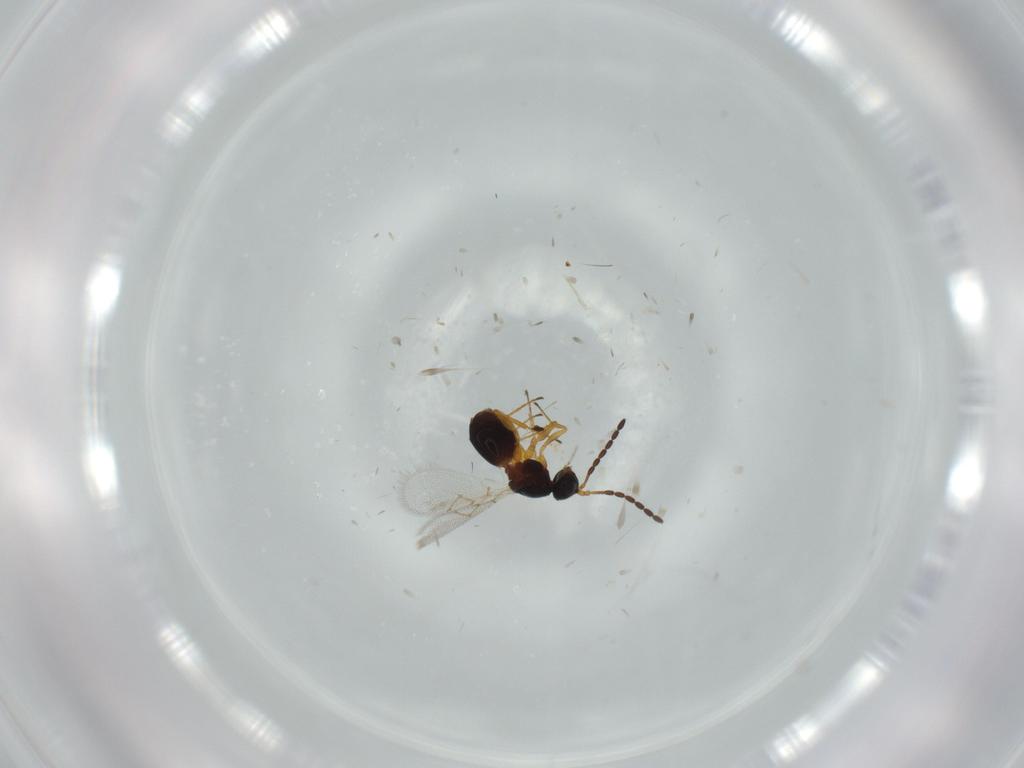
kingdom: Animalia
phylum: Arthropoda
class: Insecta
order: Hymenoptera
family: Figitidae
